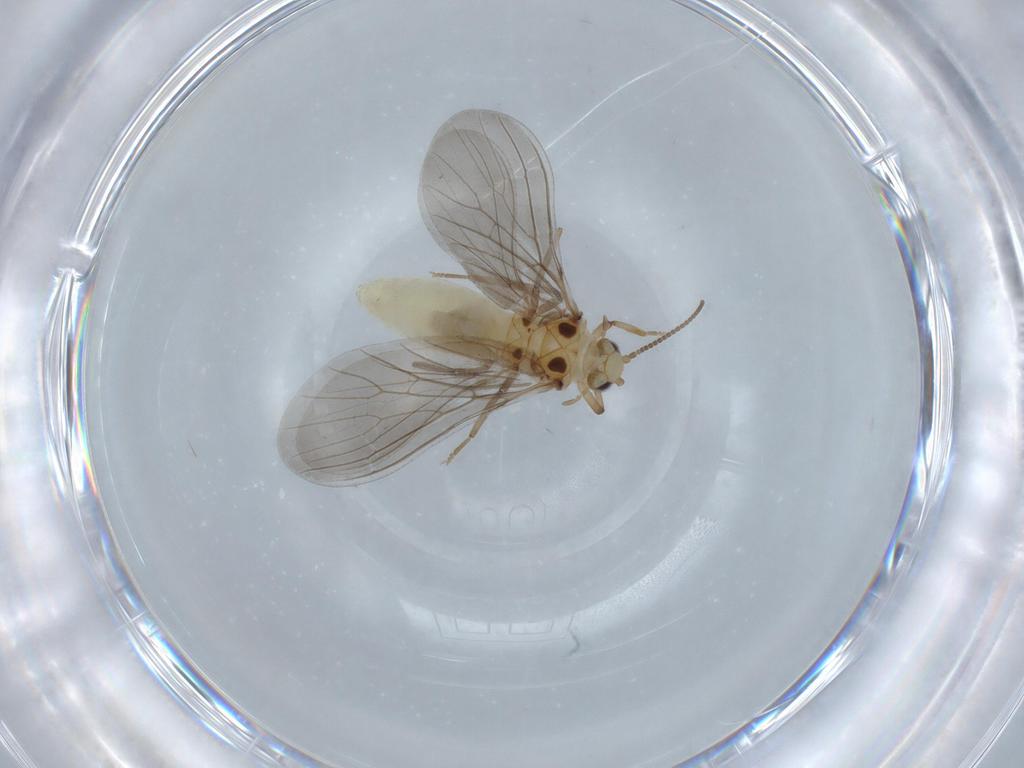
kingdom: Animalia
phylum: Arthropoda
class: Insecta
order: Neuroptera
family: Coniopterygidae
